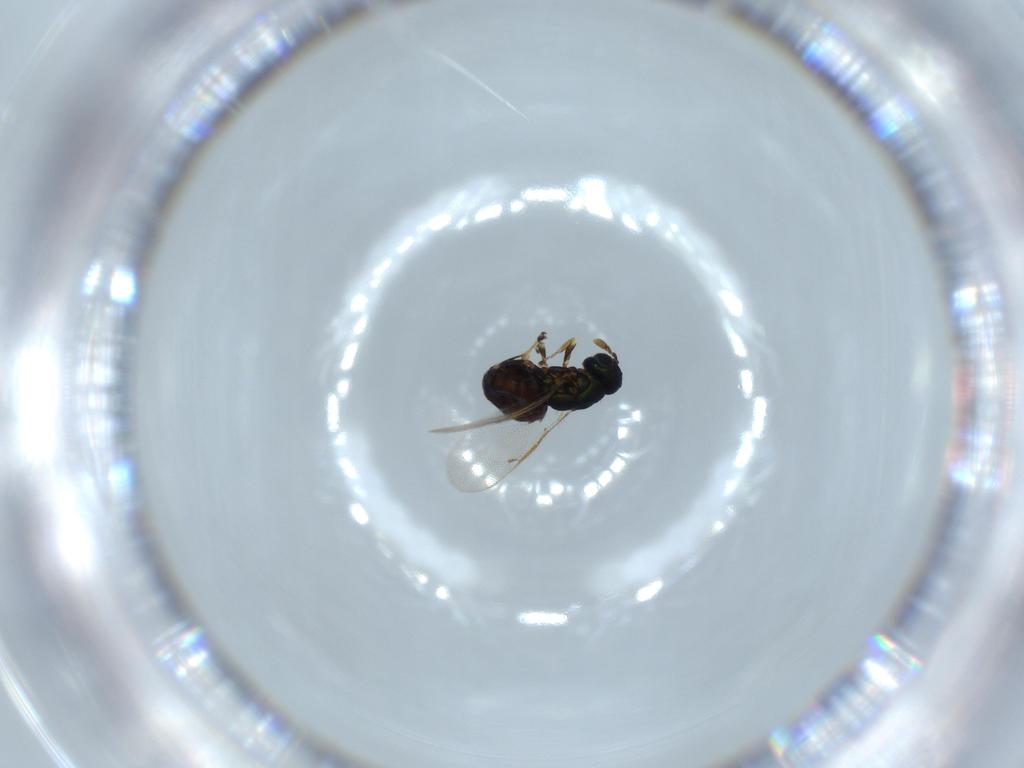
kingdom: Animalia
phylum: Arthropoda
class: Insecta
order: Hymenoptera
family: Eulophidae
